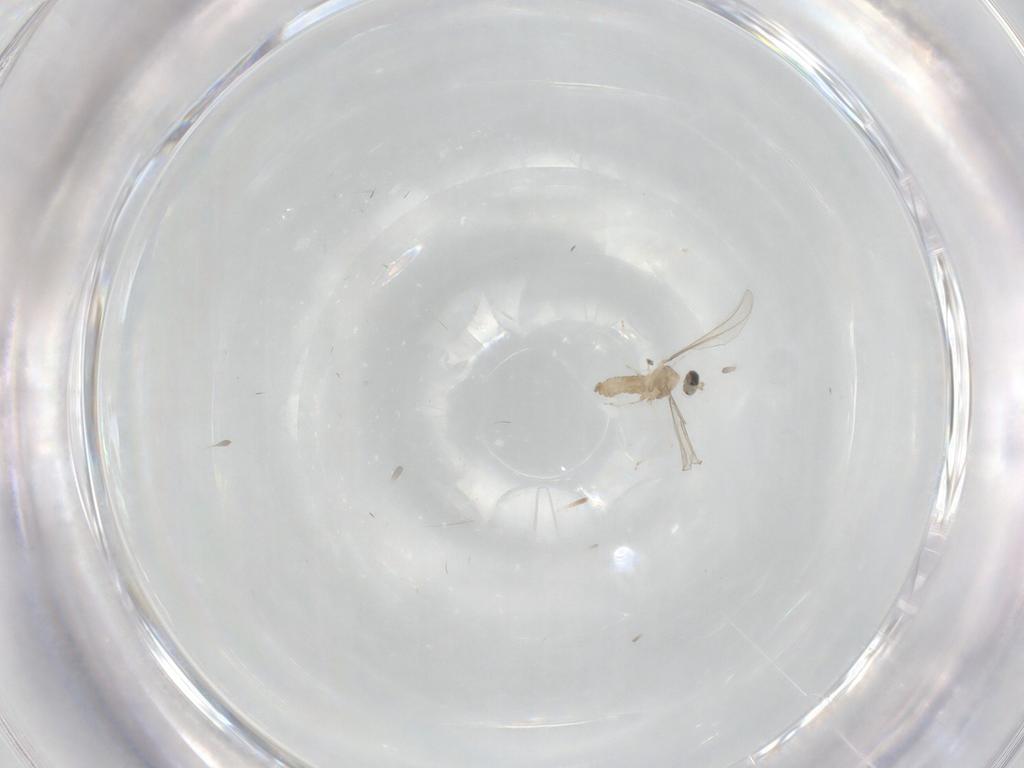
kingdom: Animalia
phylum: Arthropoda
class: Insecta
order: Diptera
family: Cecidomyiidae
